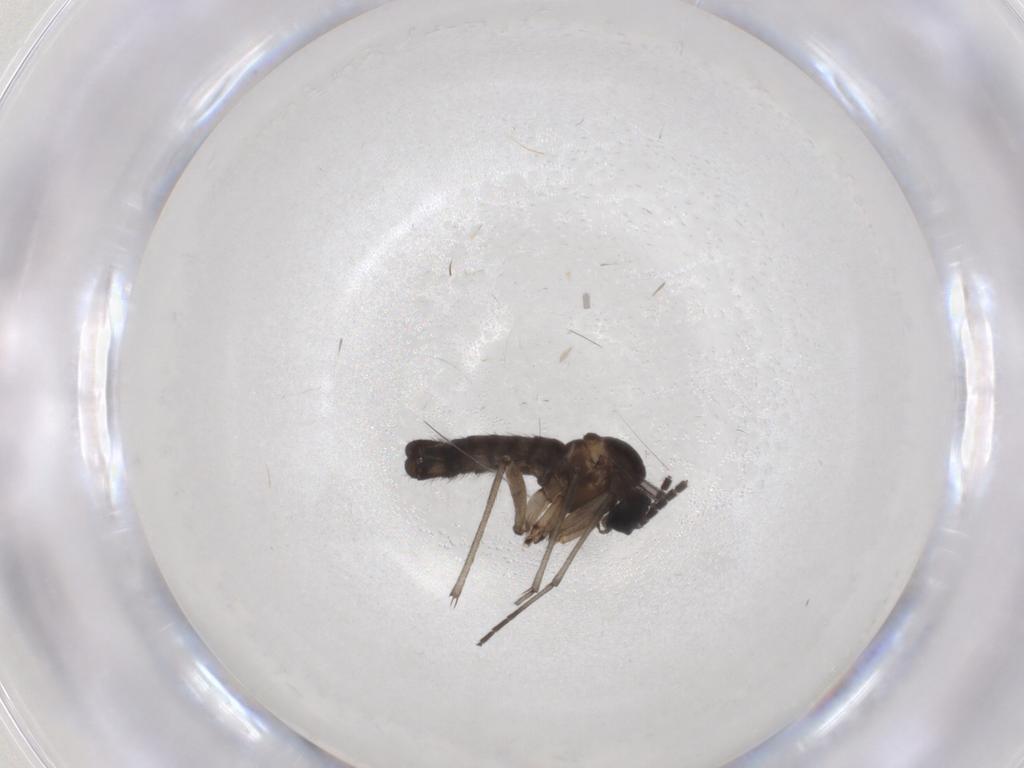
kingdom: Animalia
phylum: Arthropoda
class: Insecta
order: Diptera
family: Sciaridae
